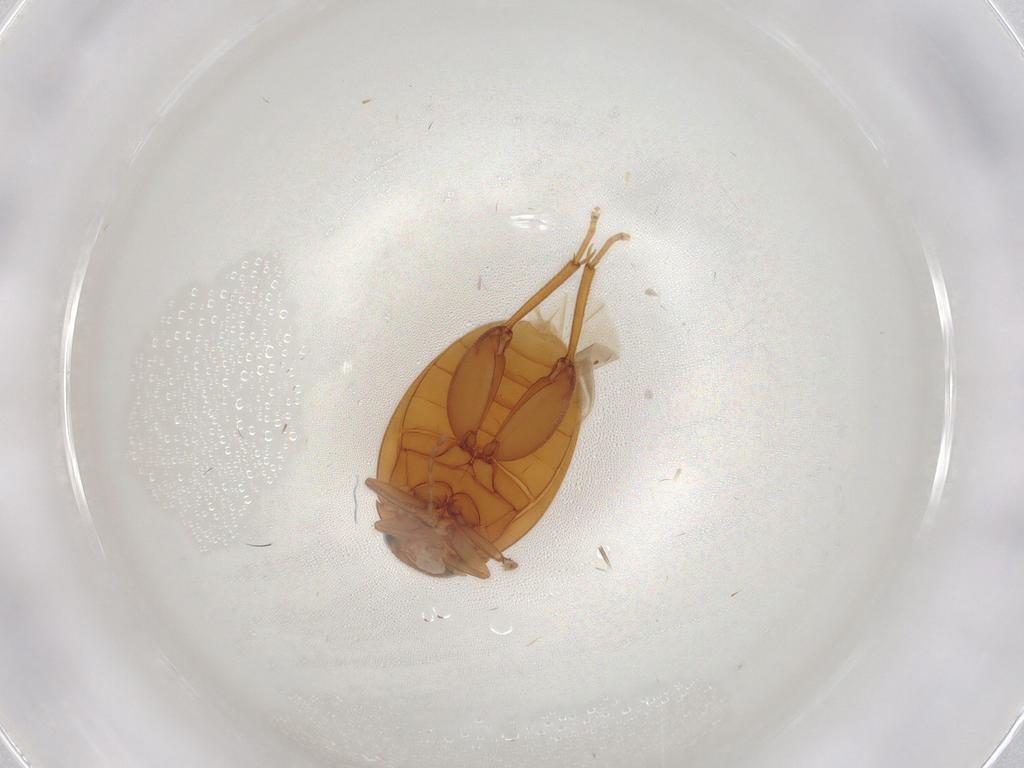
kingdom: Animalia
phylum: Arthropoda
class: Insecta
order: Coleoptera
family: Scirtidae
